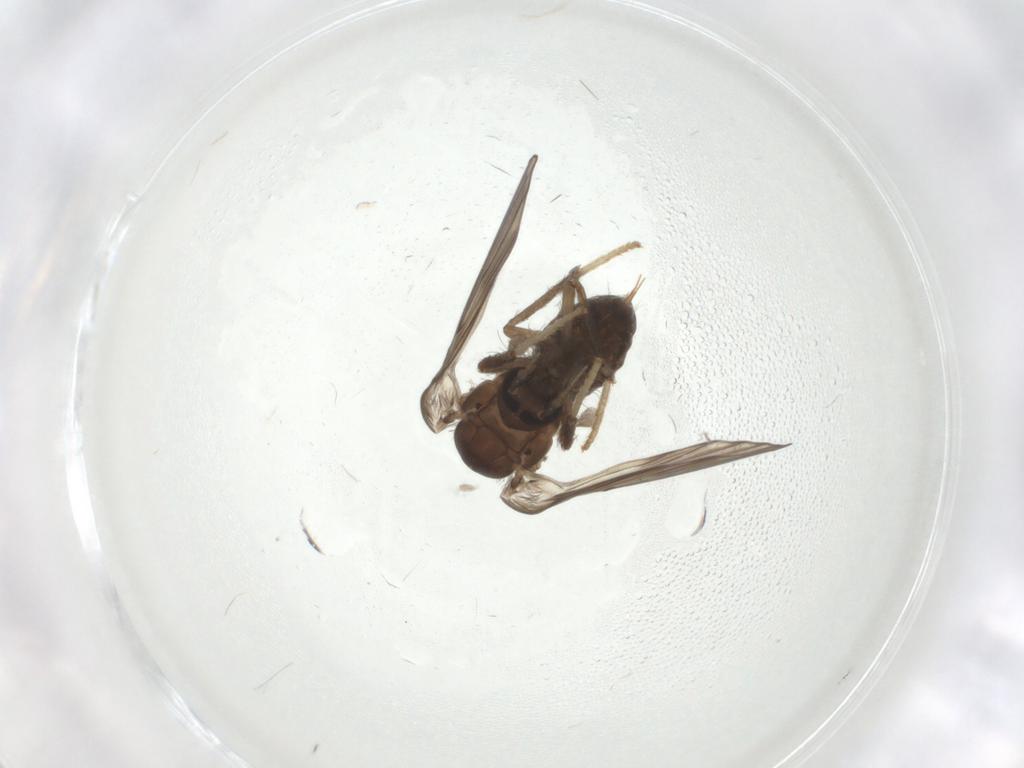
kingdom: Animalia
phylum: Arthropoda
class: Insecta
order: Diptera
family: Psychodidae
